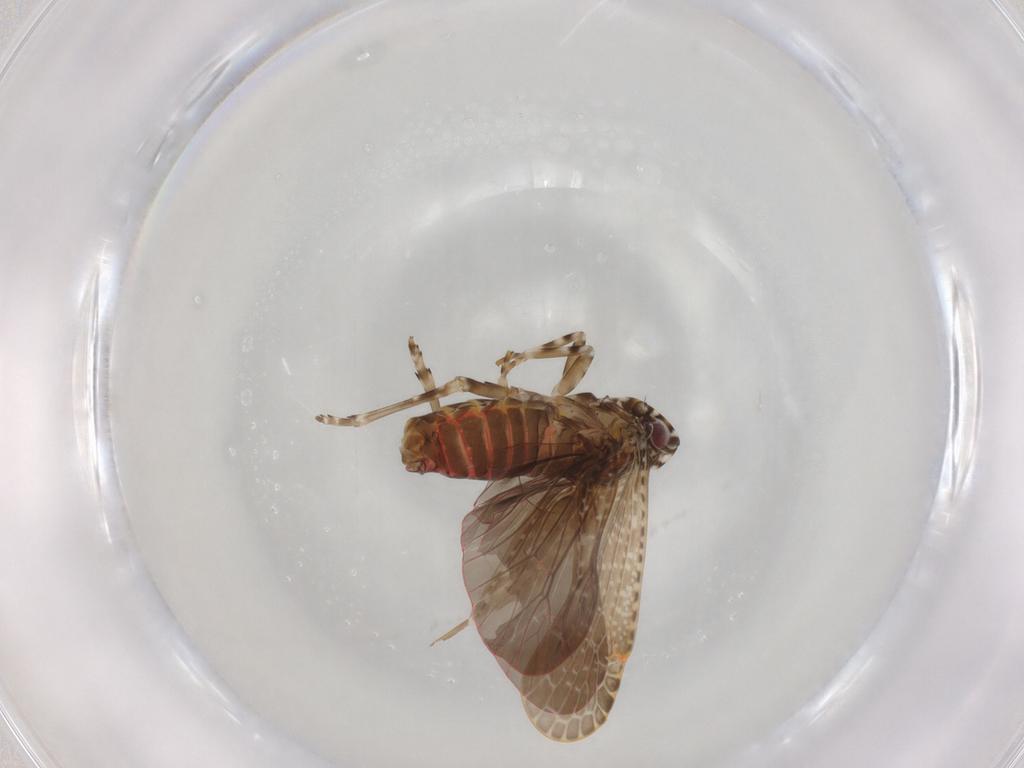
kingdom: Animalia
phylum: Arthropoda
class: Insecta
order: Hemiptera
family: Achilidae
